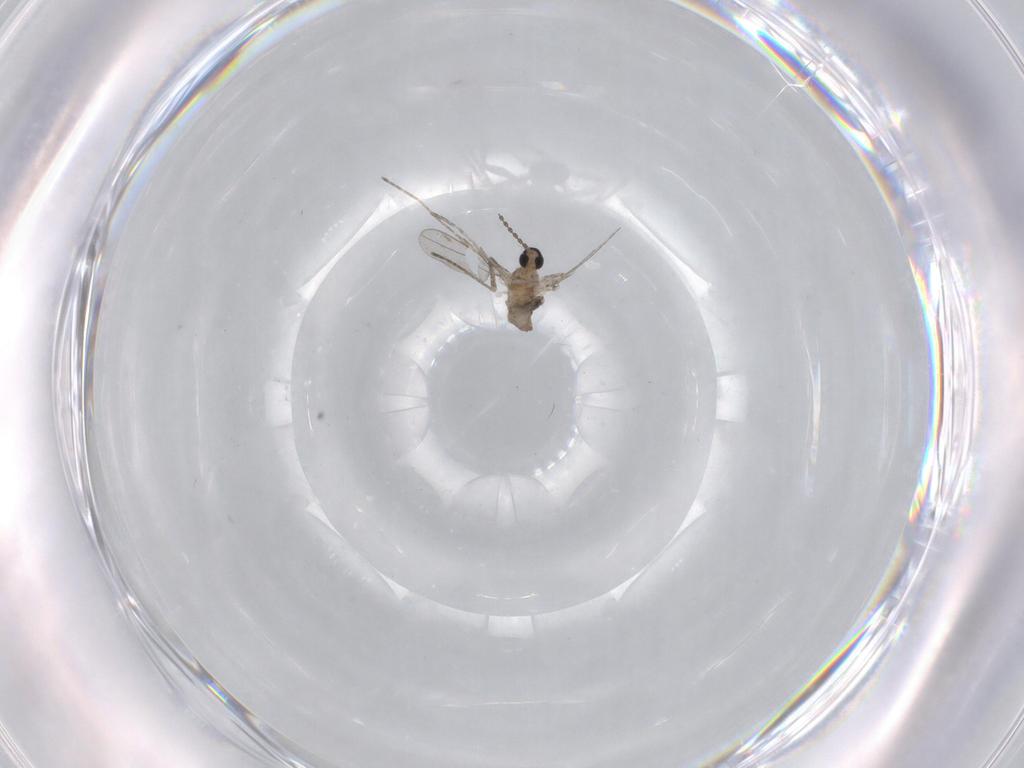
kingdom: Animalia
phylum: Arthropoda
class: Insecta
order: Diptera
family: Cecidomyiidae
